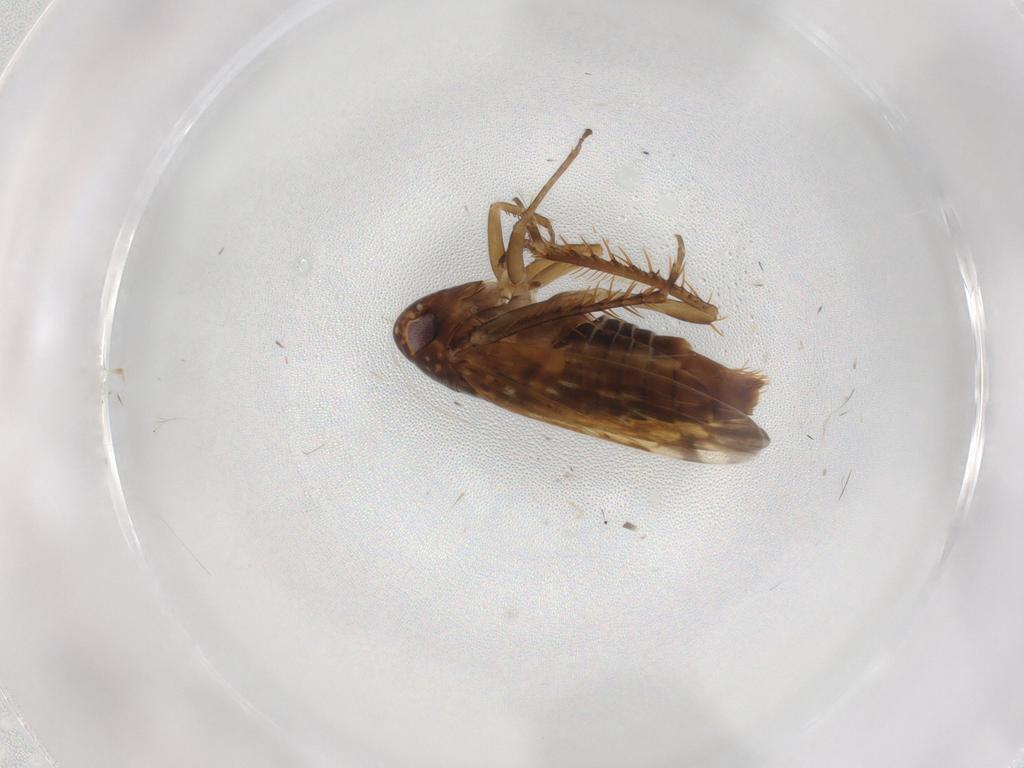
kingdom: Animalia
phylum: Arthropoda
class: Insecta
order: Hemiptera
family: Cicadellidae
